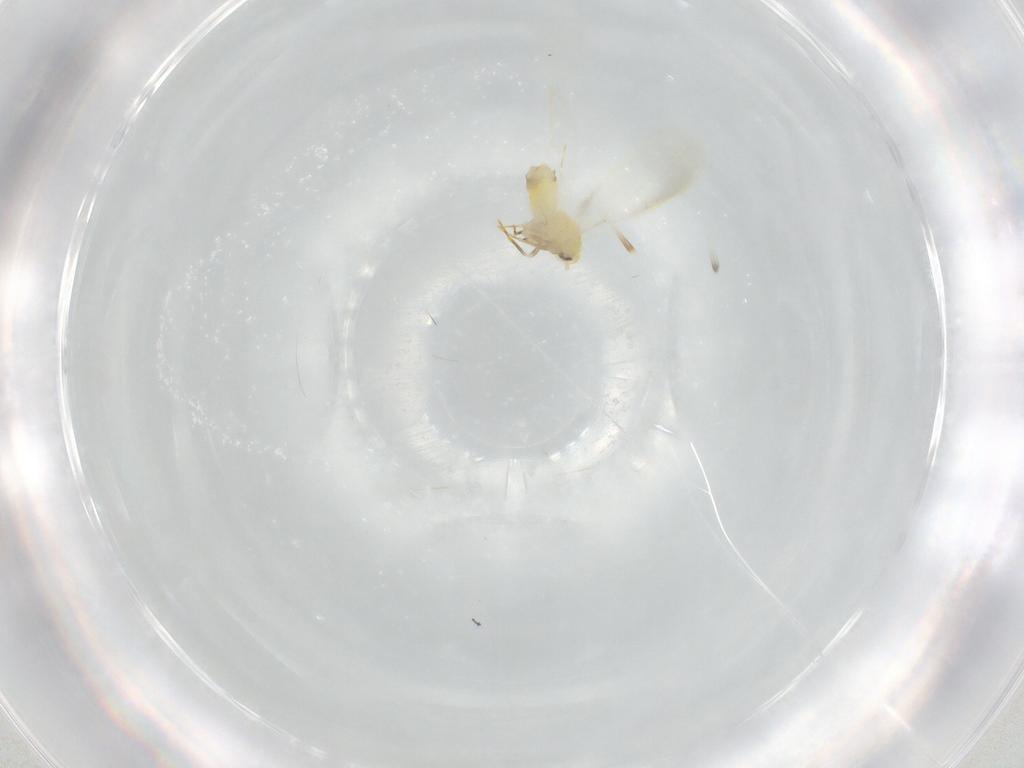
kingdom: Animalia
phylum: Arthropoda
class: Insecta
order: Hemiptera
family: Aleyrodidae
